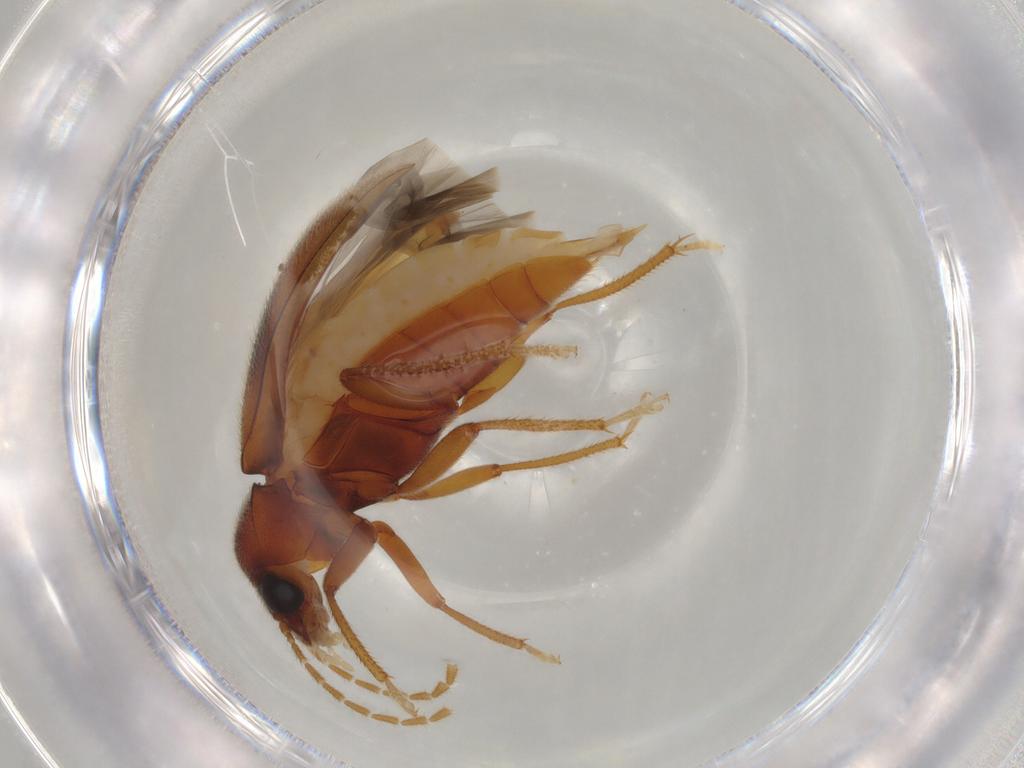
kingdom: Animalia
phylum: Arthropoda
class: Insecta
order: Coleoptera
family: Ptilodactylidae
